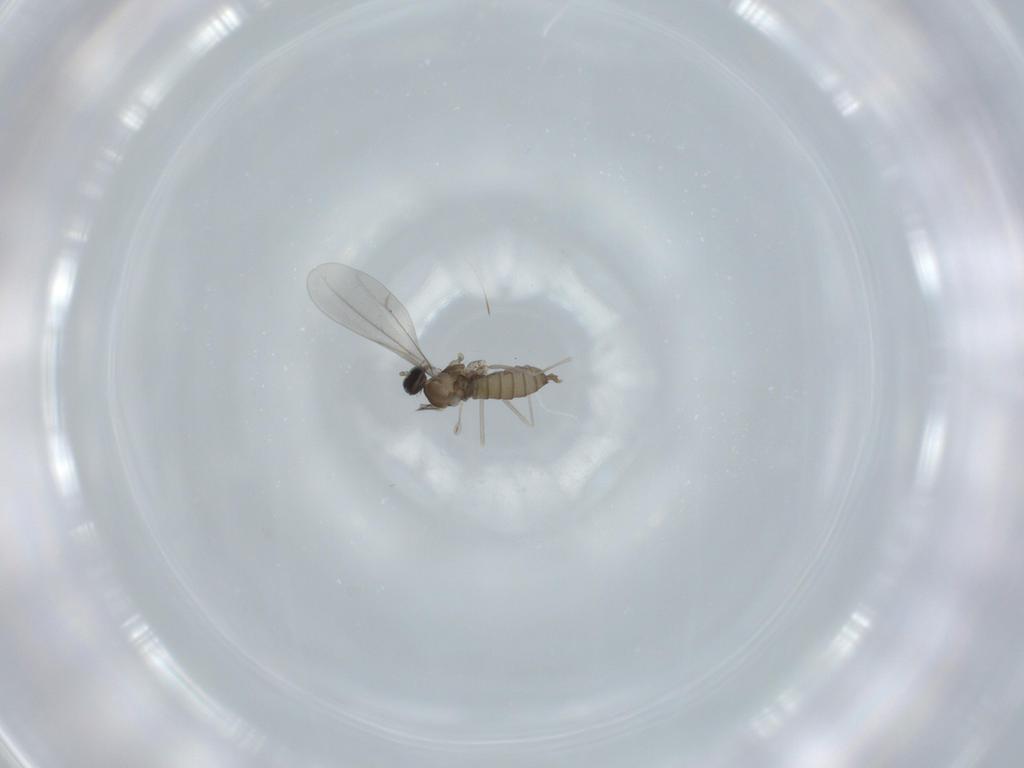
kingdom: Animalia
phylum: Arthropoda
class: Insecta
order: Diptera
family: Cecidomyiidae
